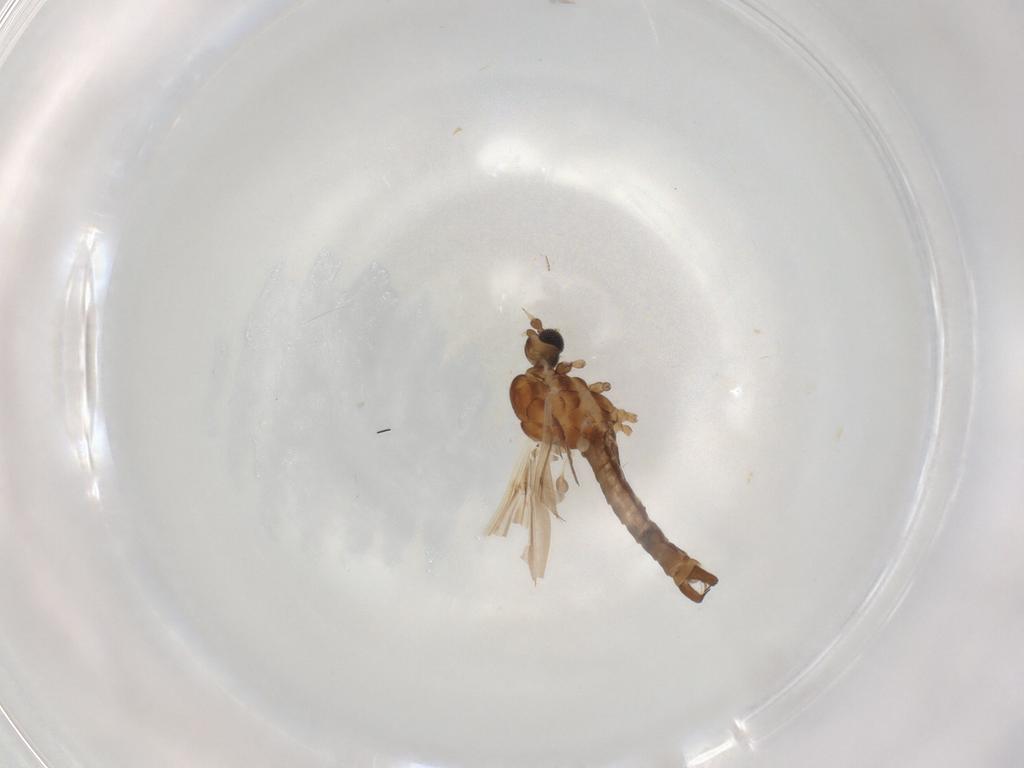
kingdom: Animalia
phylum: Arthropoda
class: Insecta
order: Diptera
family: Limoniidae
